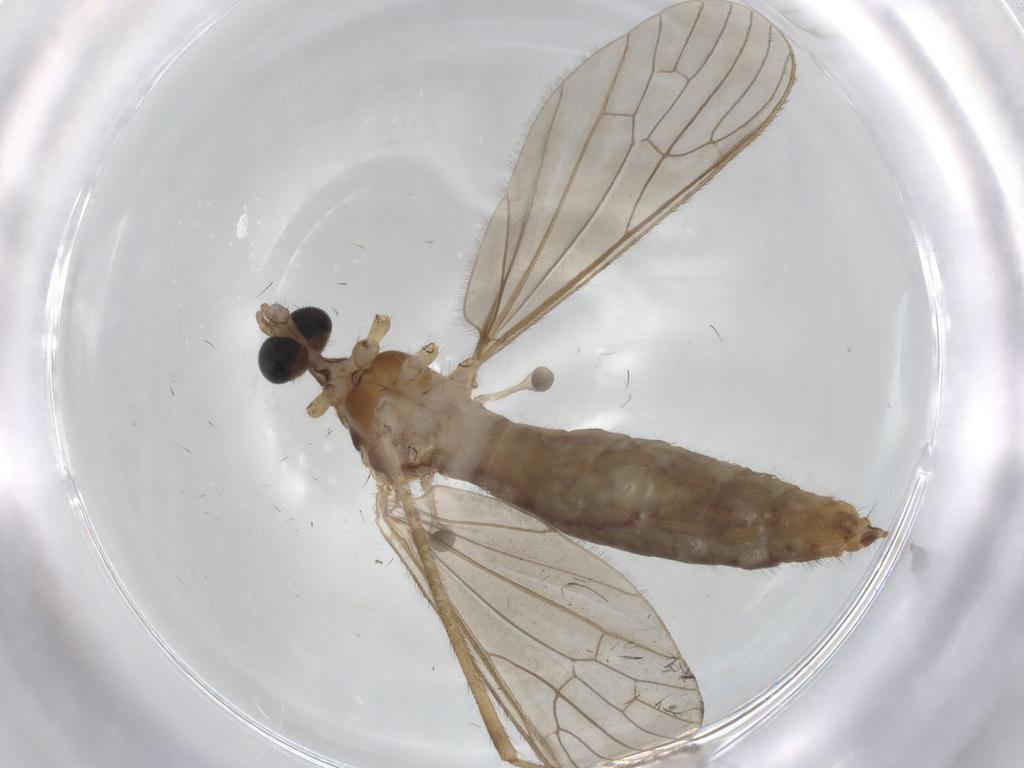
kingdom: Animalia
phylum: Arthropoda
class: Insecta
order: Diptera
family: Limoniidae
